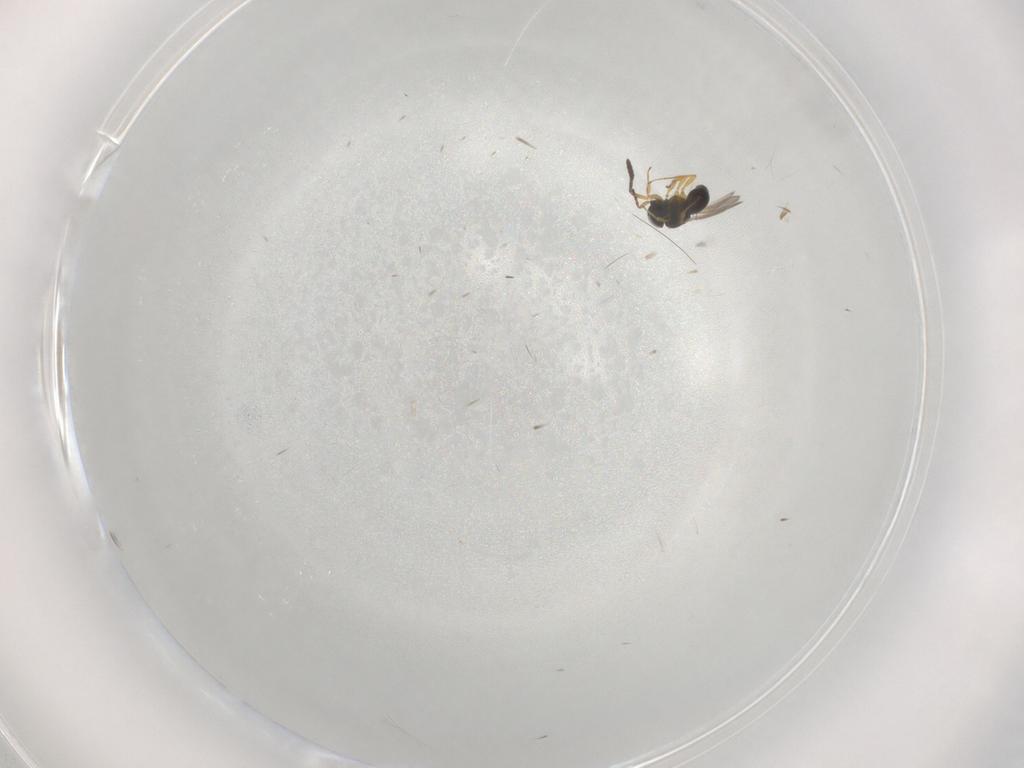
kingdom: Animalia
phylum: Arthropoda
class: Insecta
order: Hymenoptera
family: Scelionidae
